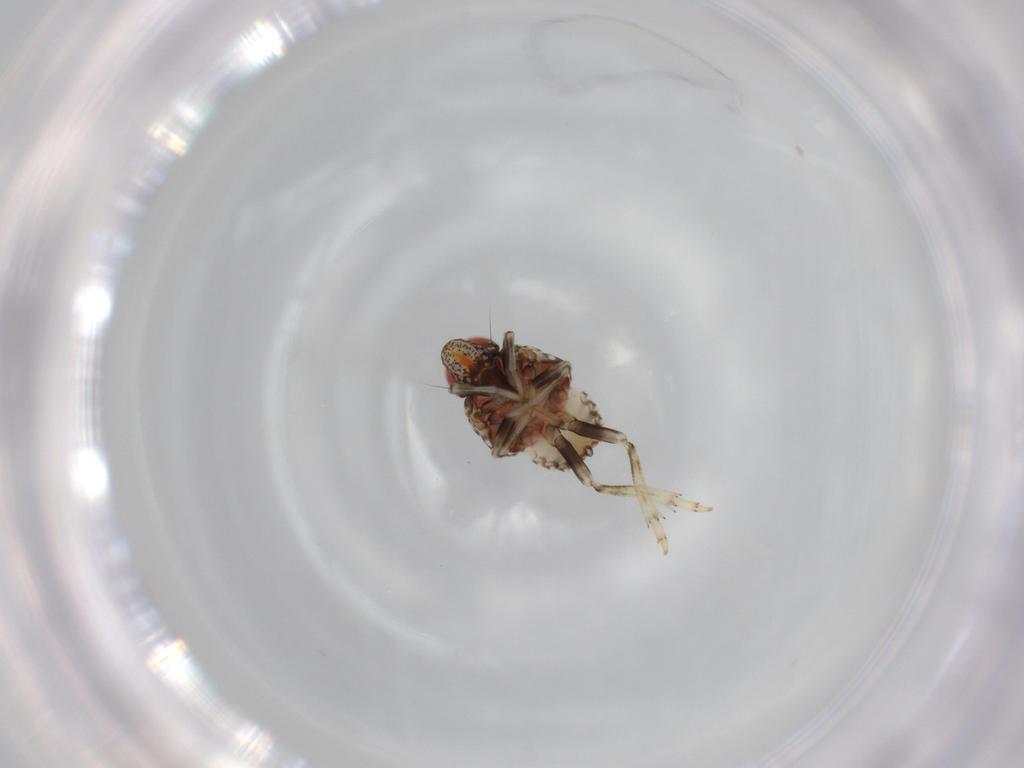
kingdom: Animalia
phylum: Arthropoda
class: Insecta
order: Hemiptera
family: Issidae
